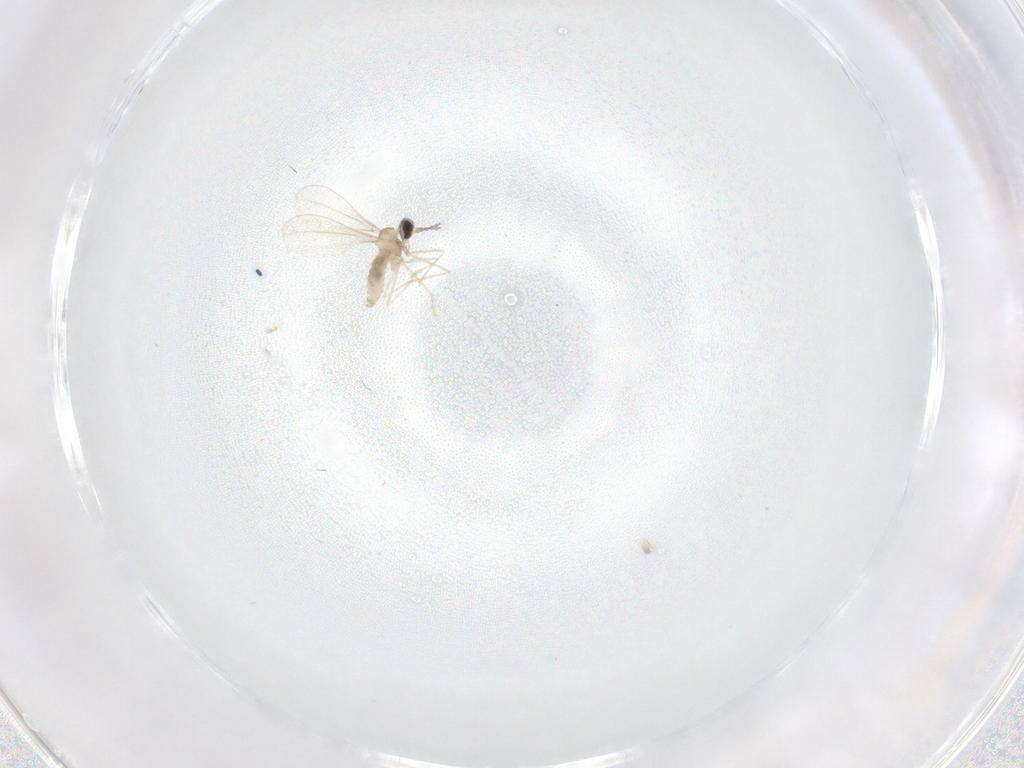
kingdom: Animalia
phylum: Arthropoda
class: Insecta
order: Diptera
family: Cecidomyiidae
